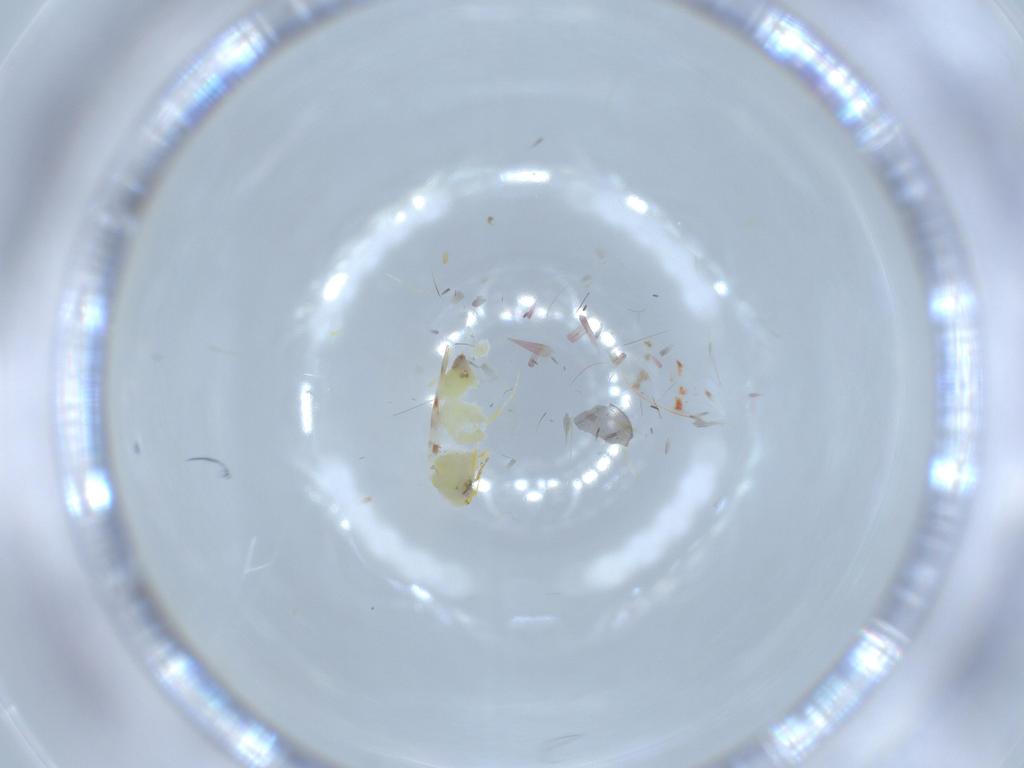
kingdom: Animalia
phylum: Arthropoda
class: Insecta
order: Hemiptera
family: Aleyrodidae
